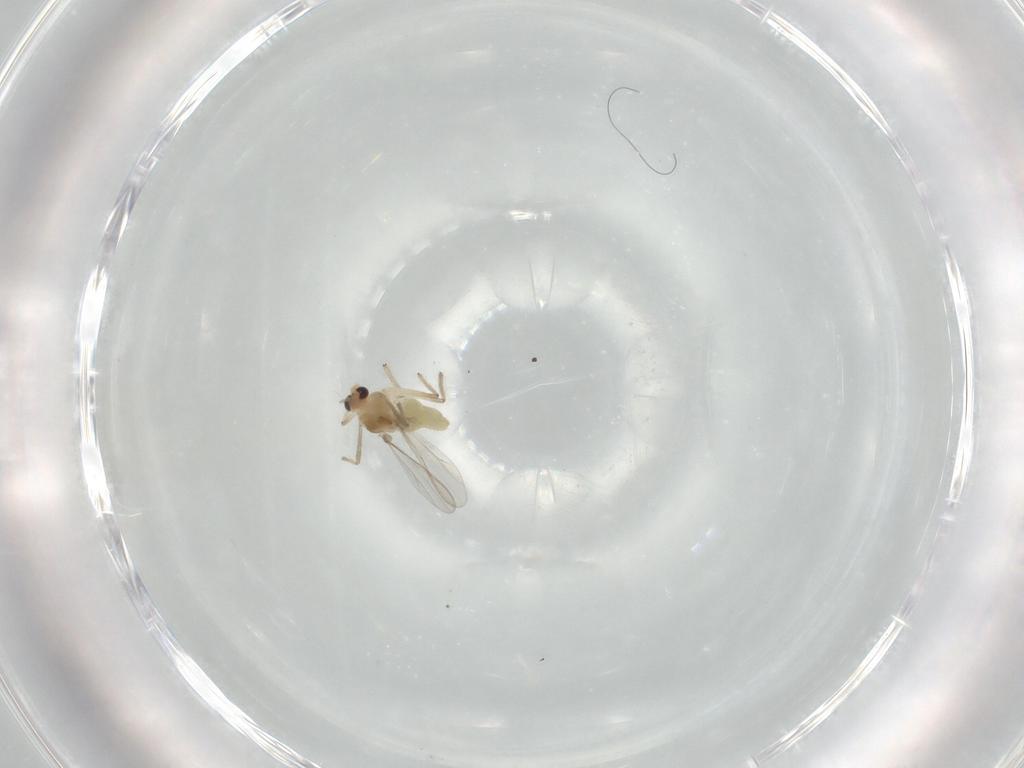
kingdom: Animalia
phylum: Arthropoda
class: Insecta
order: Diptera
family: Chironomidae
